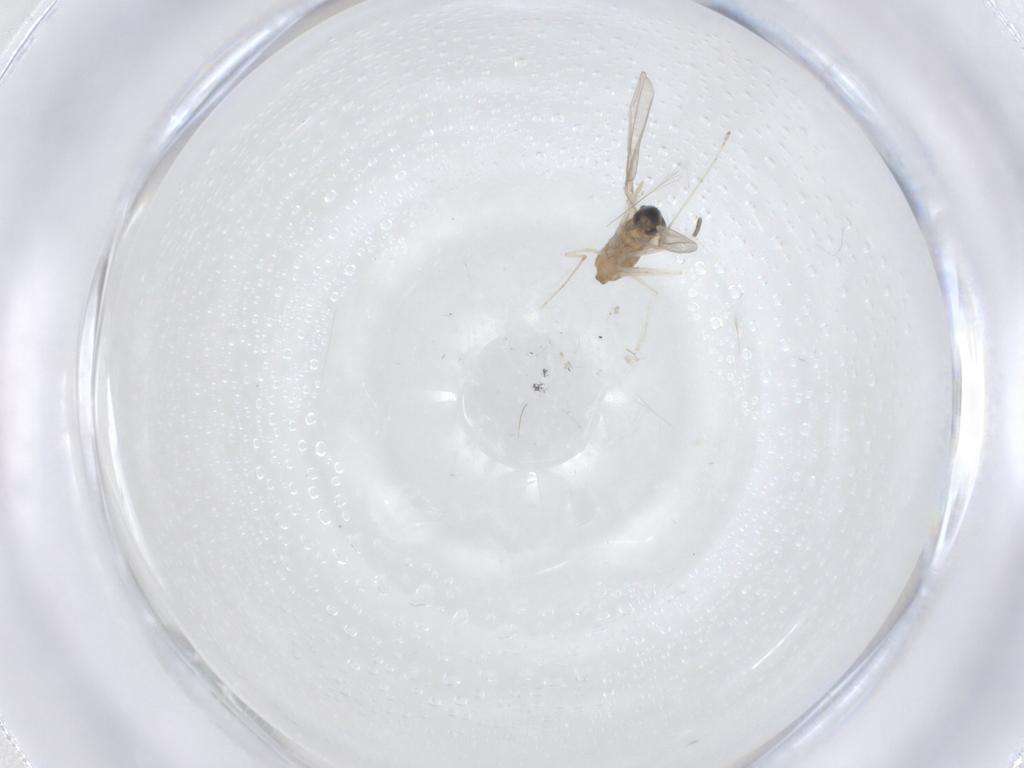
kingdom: Animalia
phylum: Arthropoda
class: Insecta
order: Diptera
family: Sciaridae
